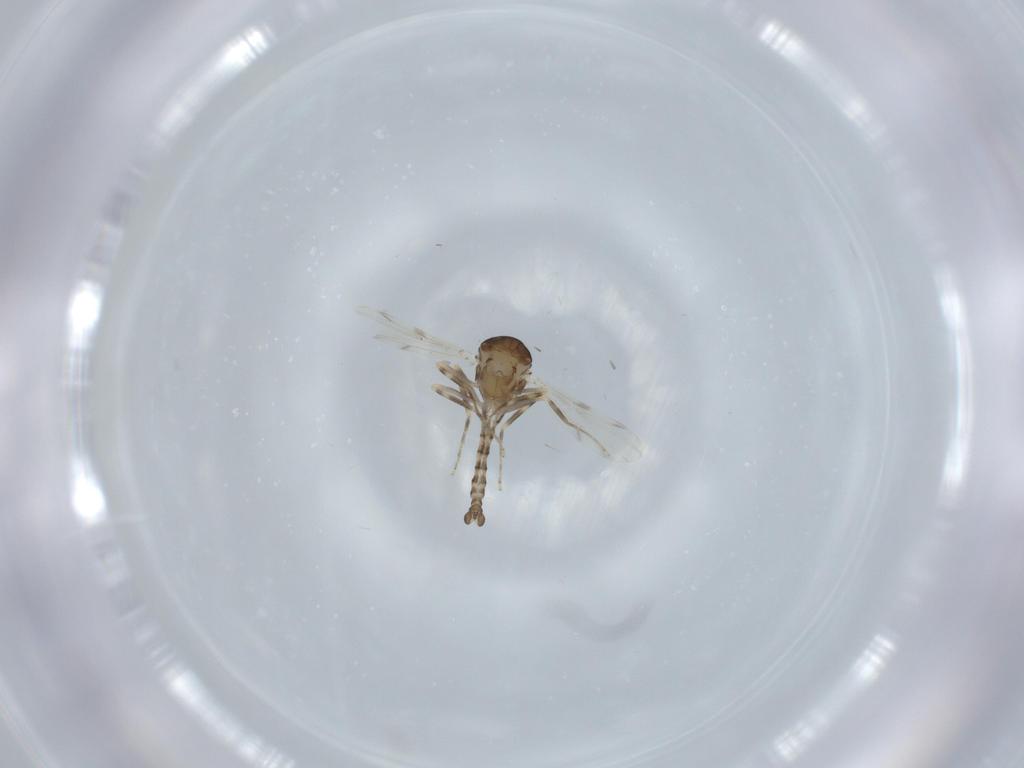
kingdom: Animalia
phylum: Arthropoda
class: Insecta
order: Diptera
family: Ceratopogonidae
